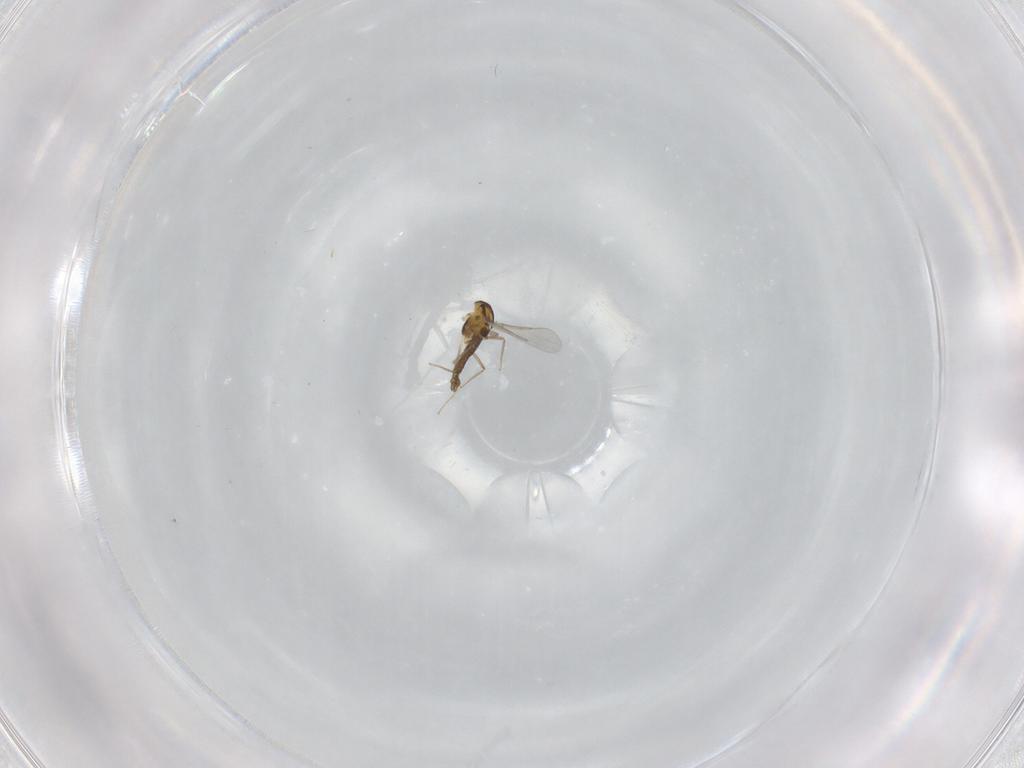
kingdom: Animalia
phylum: Arthropoda
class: Insecta
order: Diptera
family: Chironomidae
